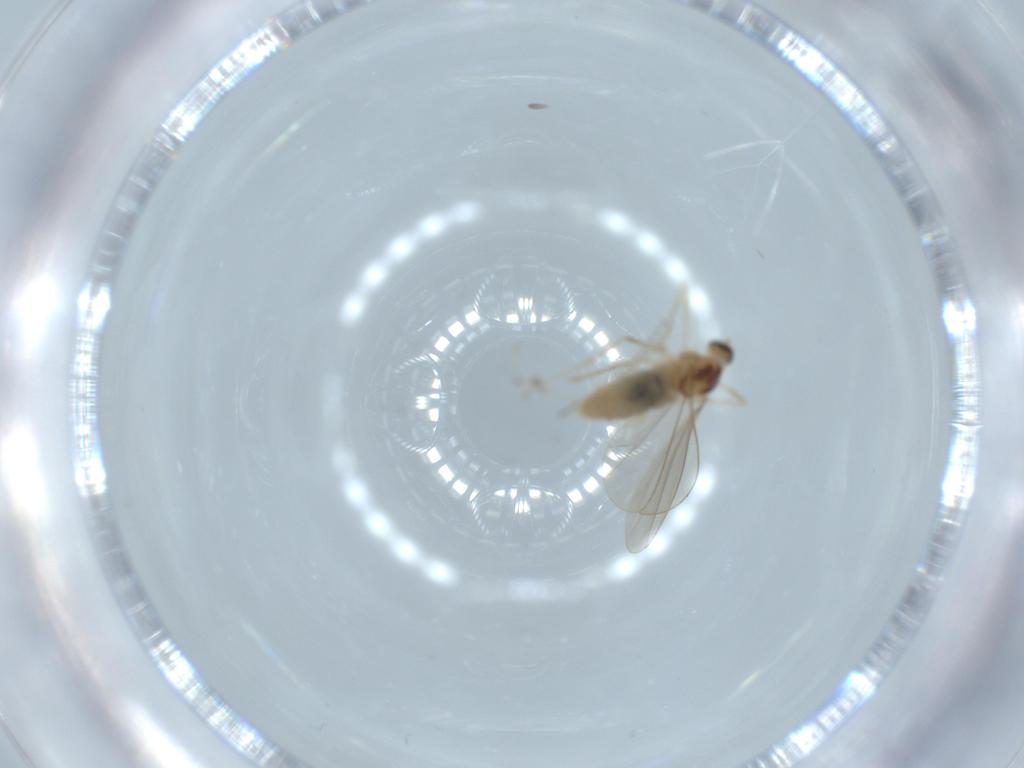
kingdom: Animalia
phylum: Arthropoda
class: Insecta
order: Diptera
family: Cecidomyiidae
